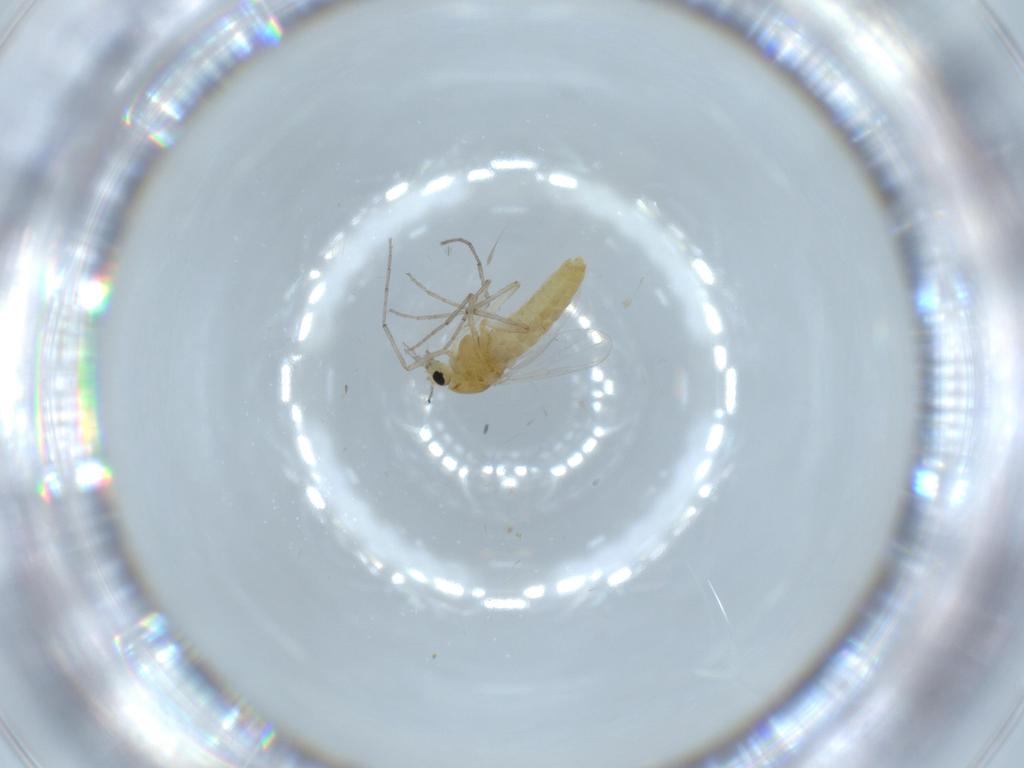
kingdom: Animalia
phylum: Arthropoda
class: Insecta
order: Diptera
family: Chironomidae
